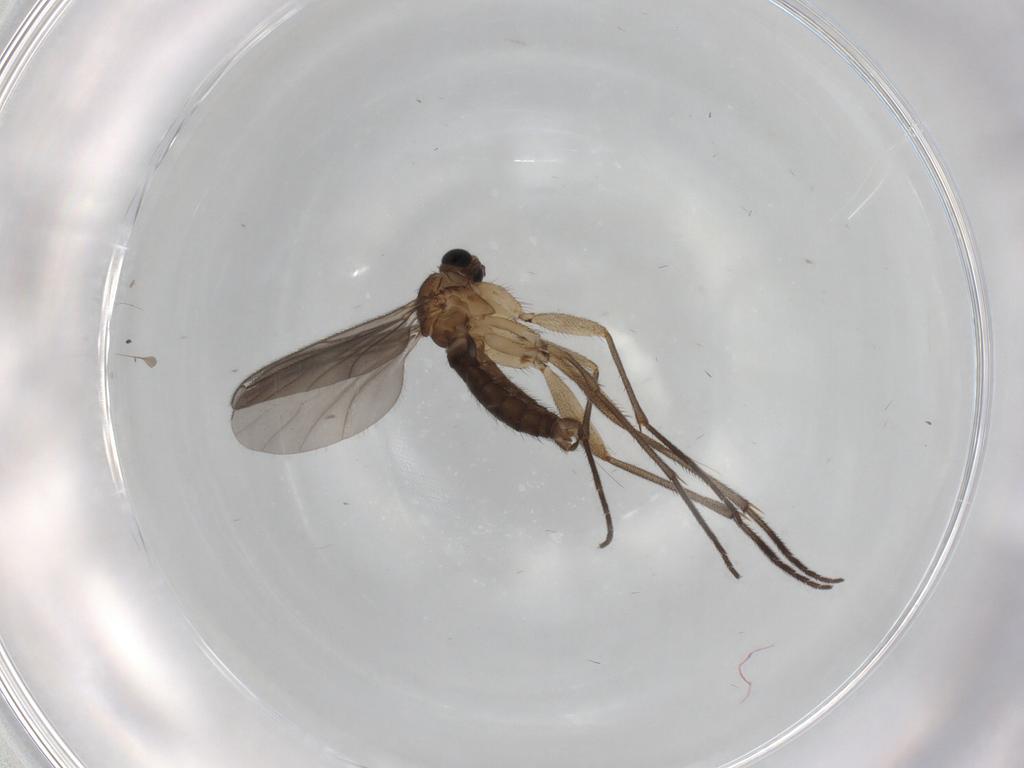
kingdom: Animalia
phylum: Arthropoda
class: Insecta
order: Diptera
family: Sciaridae
